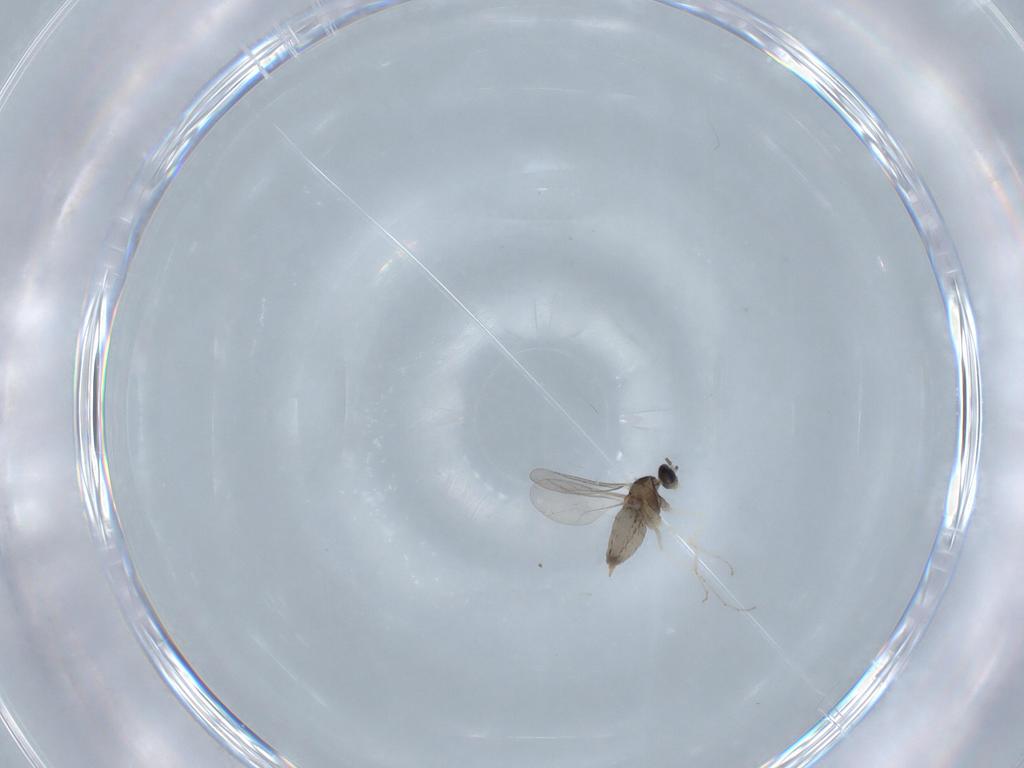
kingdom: Animalia
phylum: Arthropoda
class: Insecta
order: Diptera
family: Cecidomyiidae
